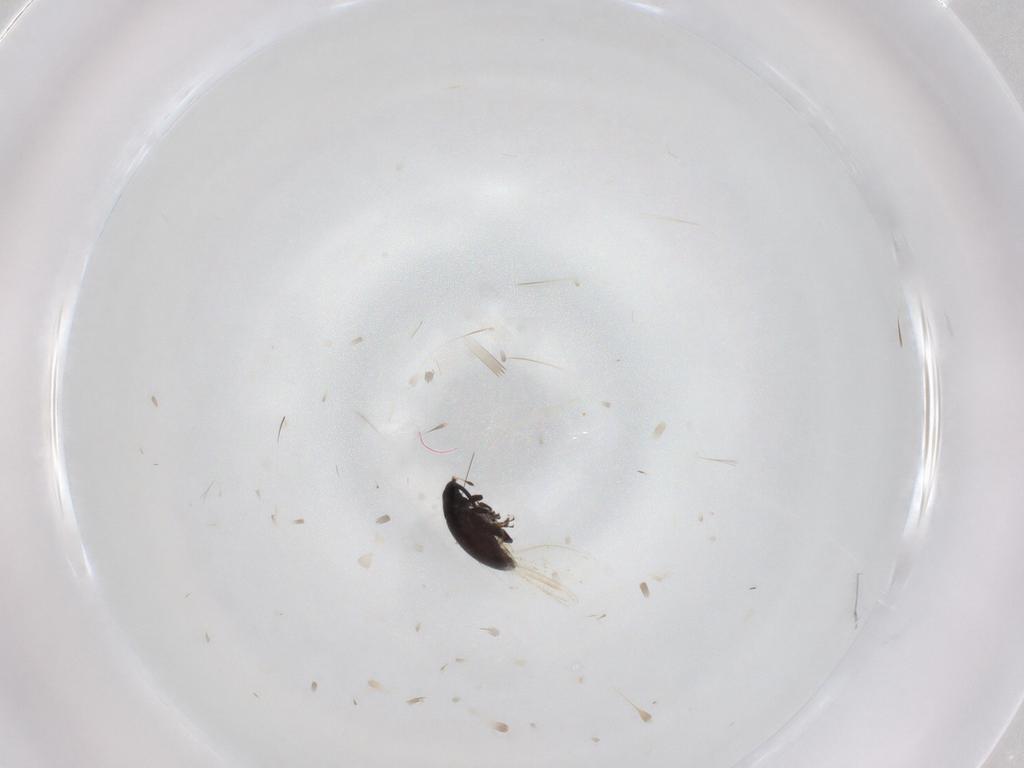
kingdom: Animalia
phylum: Arthropoda
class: Insecta
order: Coleoptera
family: Curculionidae
